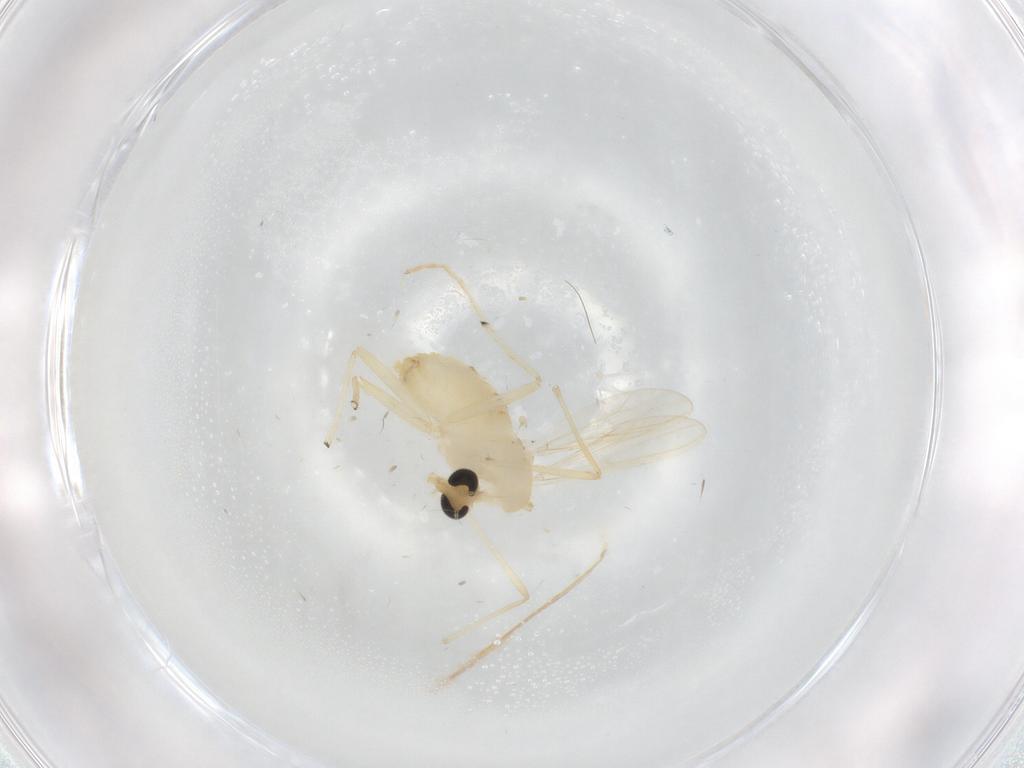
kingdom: Animalia
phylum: Arthropoda
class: Insecta
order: Diptera
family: Chironomidae
